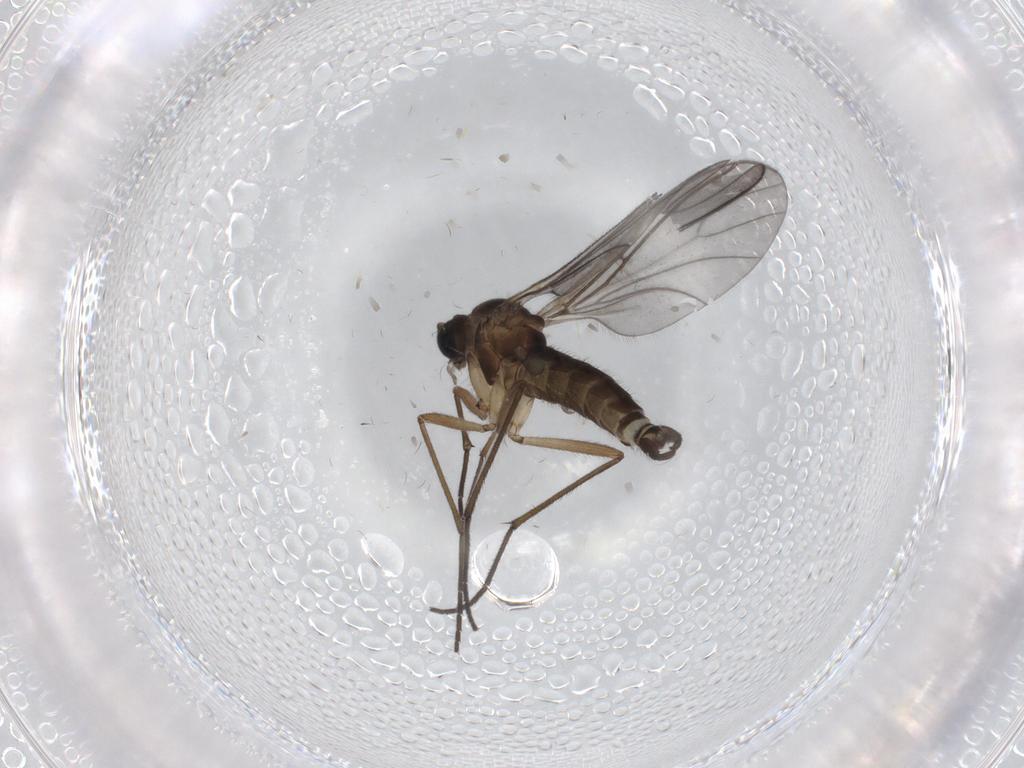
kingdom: Animalia
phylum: Arthropoda
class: Insecta
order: Diptera
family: Sciaridae
